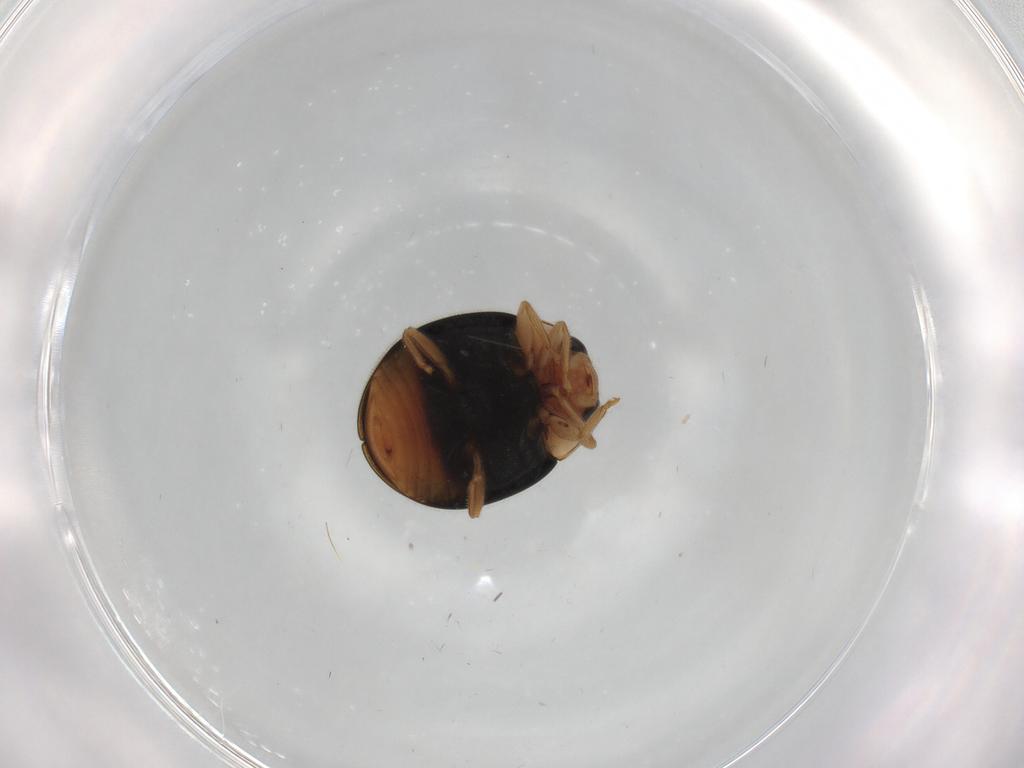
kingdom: Animalia
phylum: Arthropoda
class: Insecta
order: Coleoptera
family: Coccinellidae
